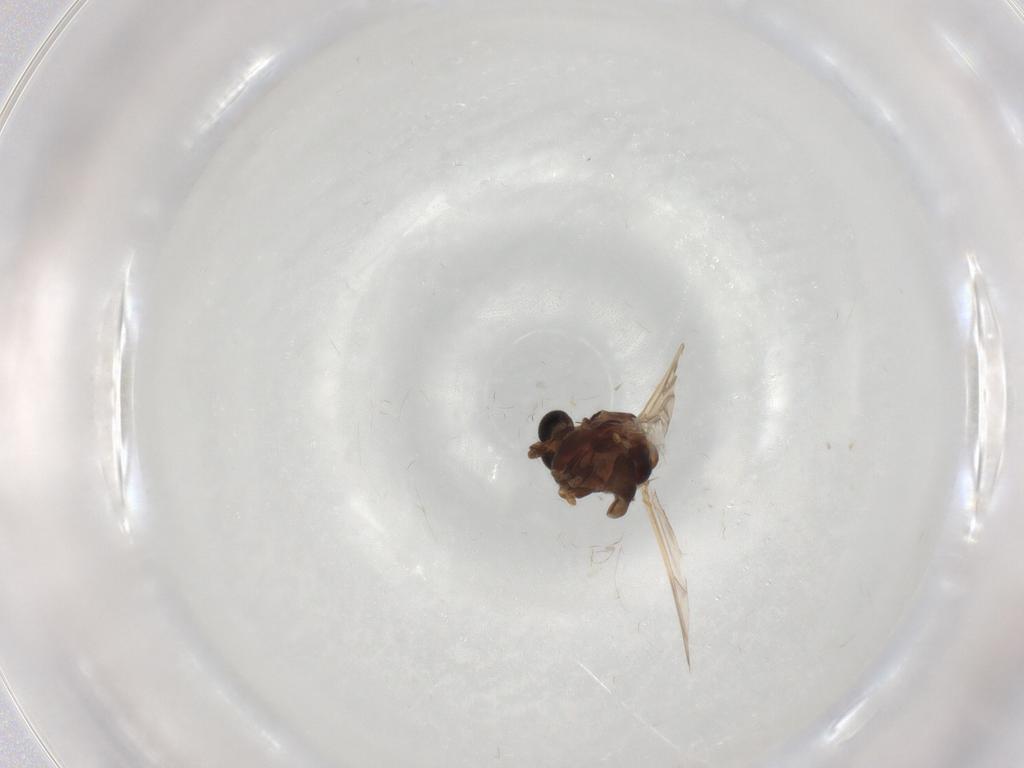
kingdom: Animalia
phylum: Arthropoda
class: Insecta
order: Diptera
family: Chironomidae
